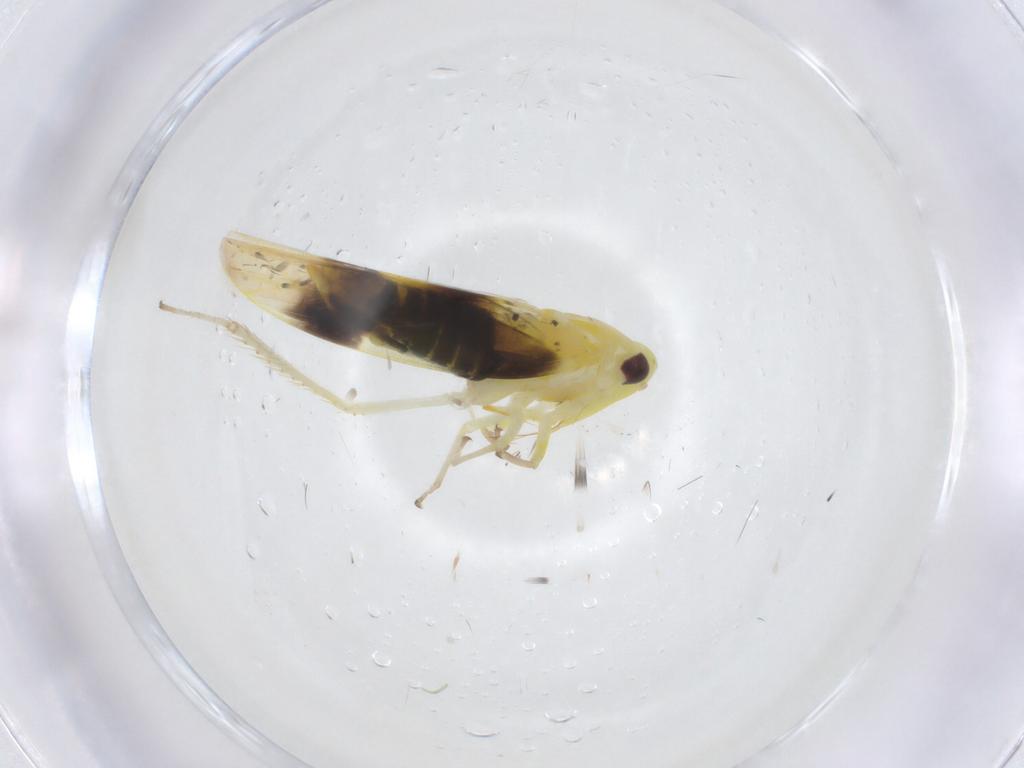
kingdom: Animalia
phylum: Arthropoda
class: Insecta
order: Hemiptera
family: Cicadellidae
